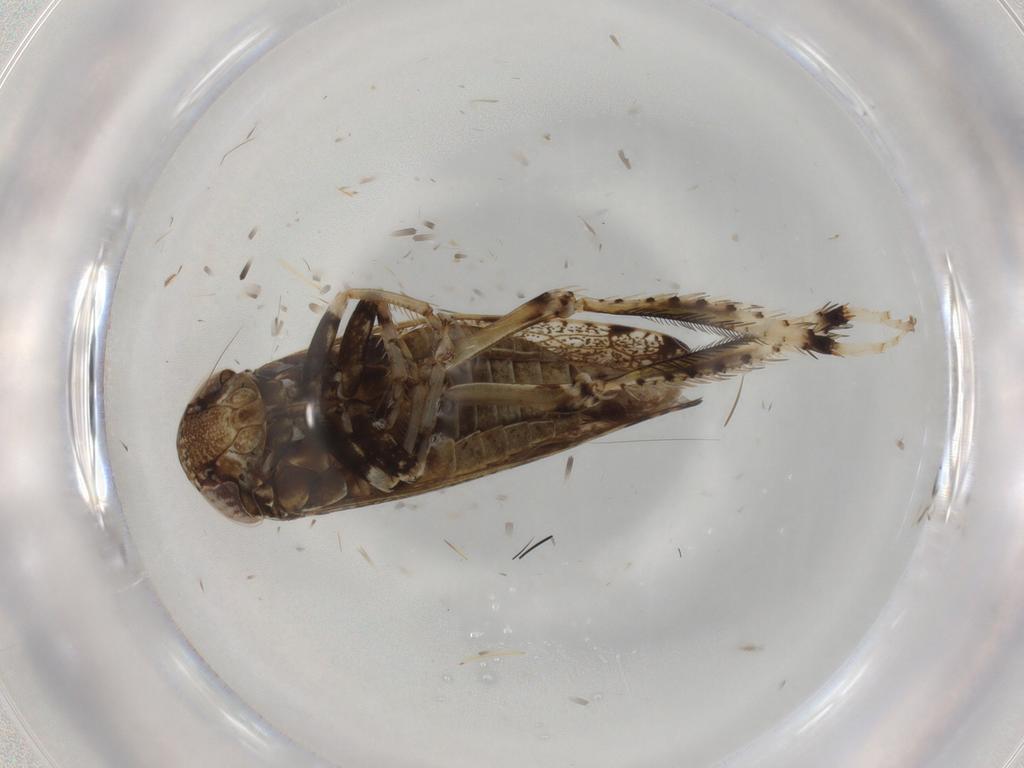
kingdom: Animalia
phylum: Arthropoda
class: Insecta
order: Hemiptera
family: Cicadellidae
